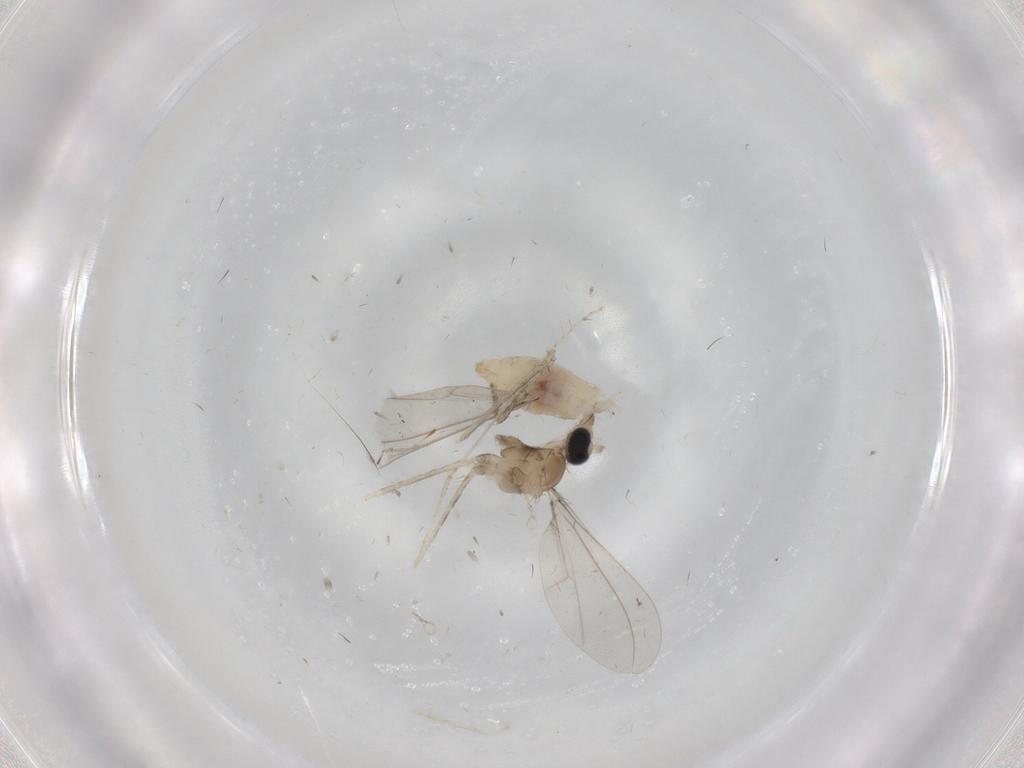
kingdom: Animalia
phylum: Arthropoda
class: Insecta
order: Diptera
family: Cecidomyiidae
